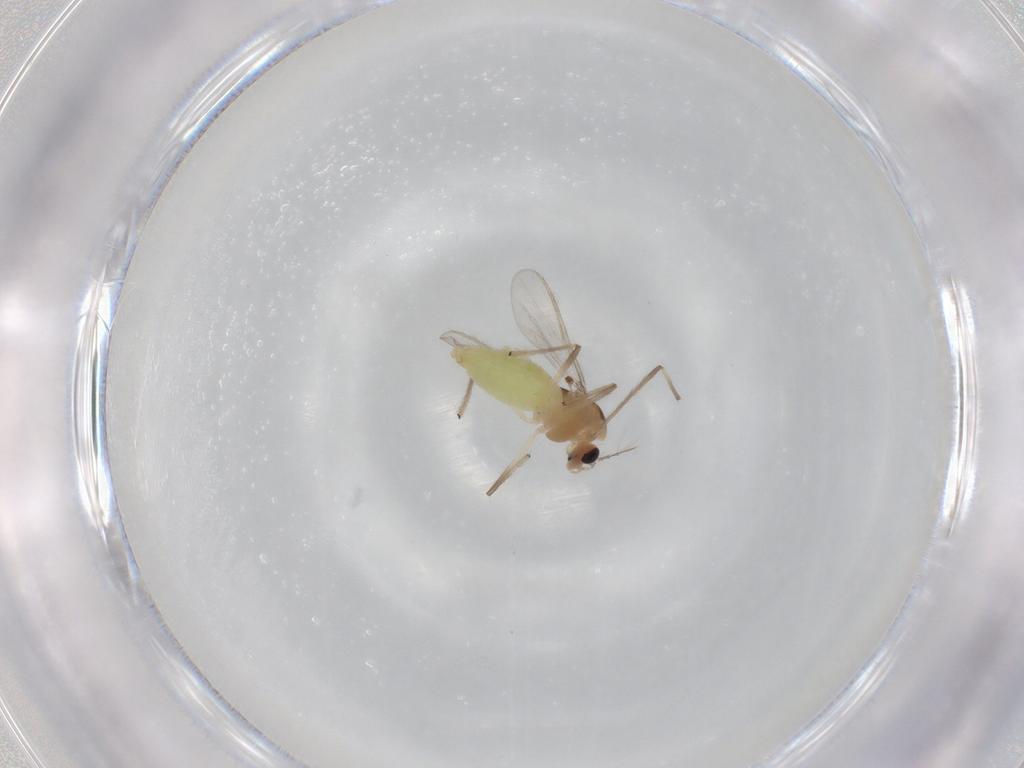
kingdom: Animalia
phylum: Arthropoda
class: Insecta
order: Diptera
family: Chironomidae
